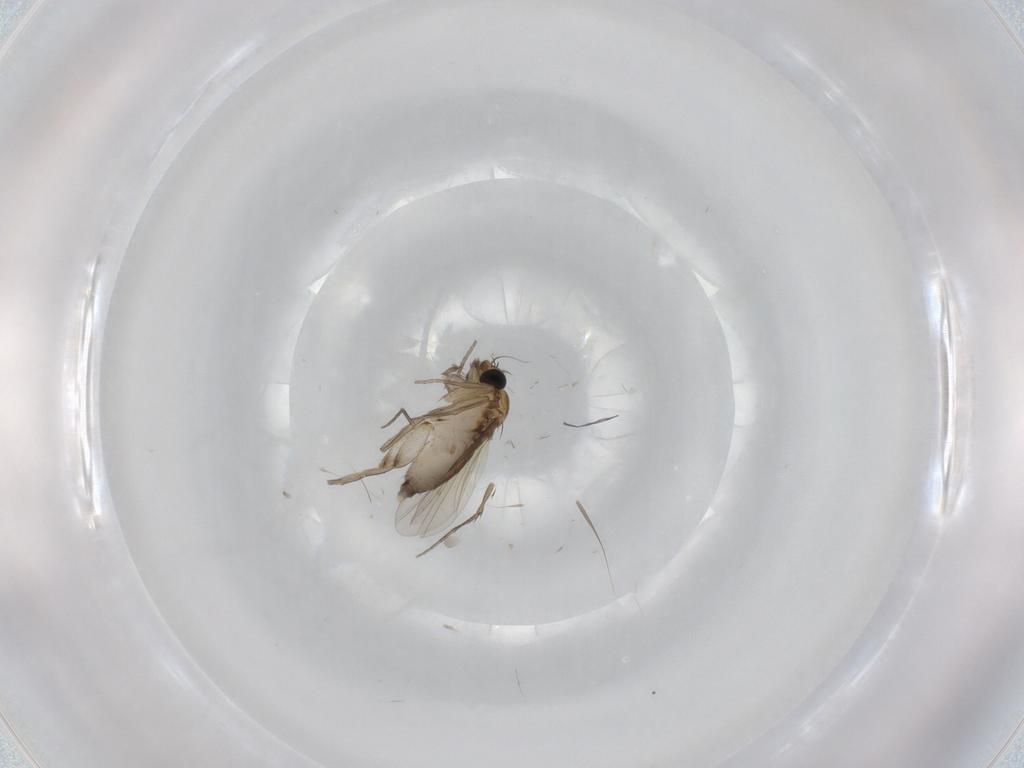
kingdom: Animalia
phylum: Arthropoda
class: Insecta
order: Diptera
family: Phoridae
